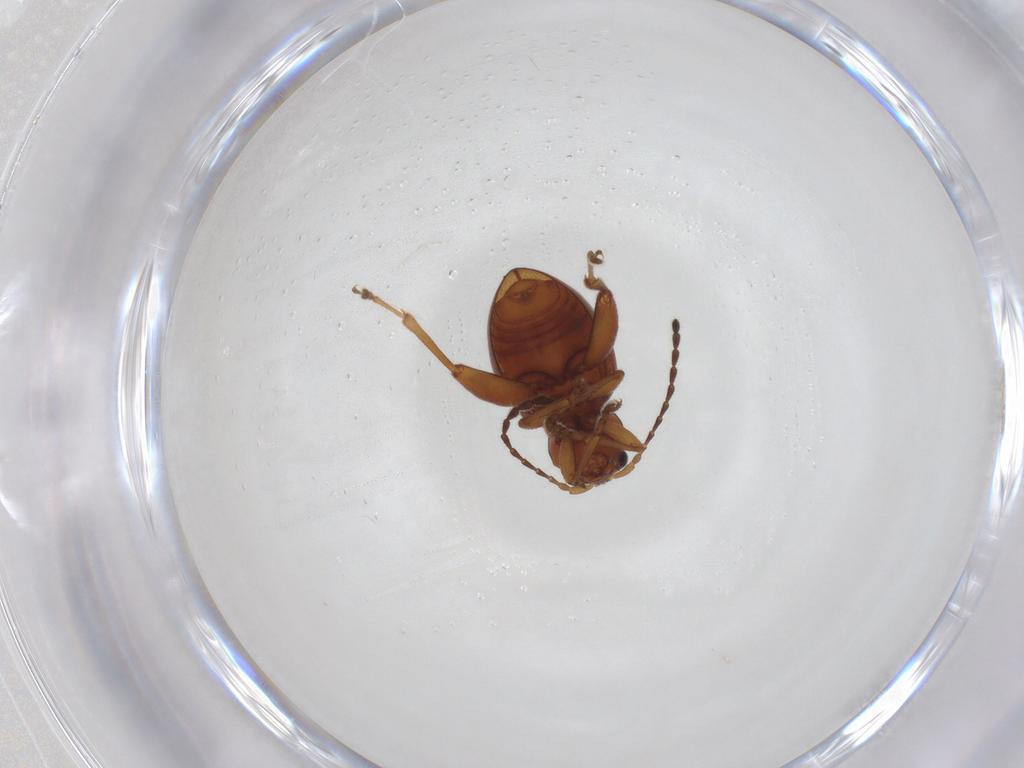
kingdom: Animalia
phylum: Arthropoda
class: Insecta
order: Coleoptera
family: Chrysomelidae
